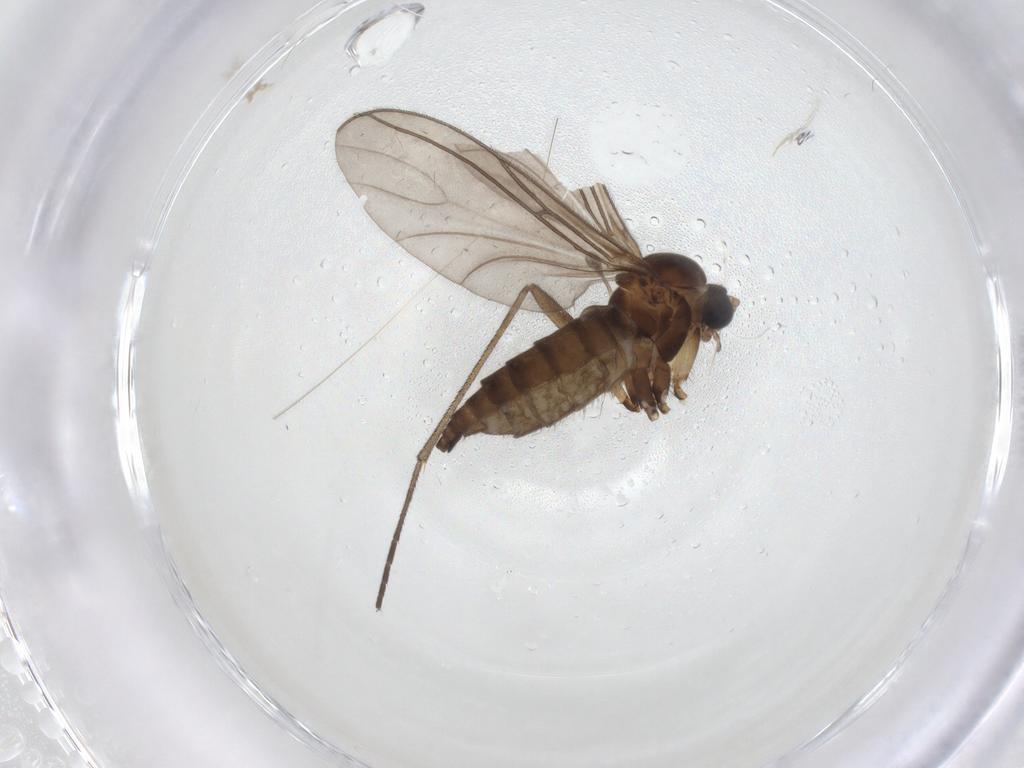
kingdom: Animalia
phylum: Arthropoda
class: Insecta
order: Diptera
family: Sciaridae
